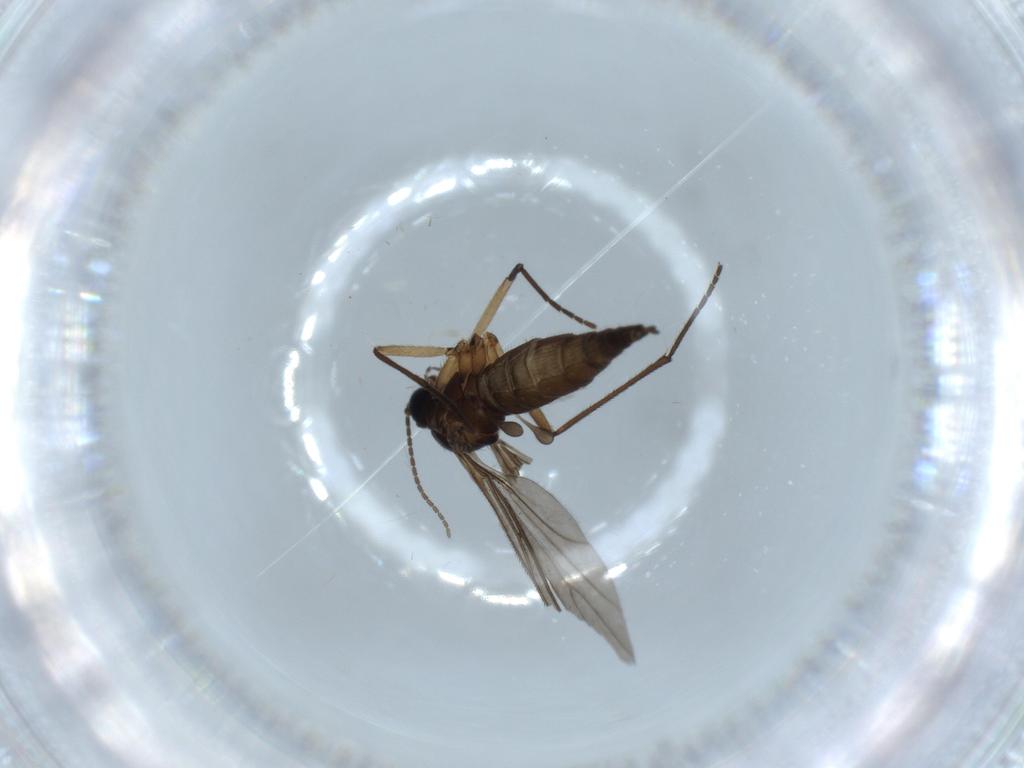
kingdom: Animalia
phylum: Arthropoda
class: Insecta
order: Diptera
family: Sciaridae
